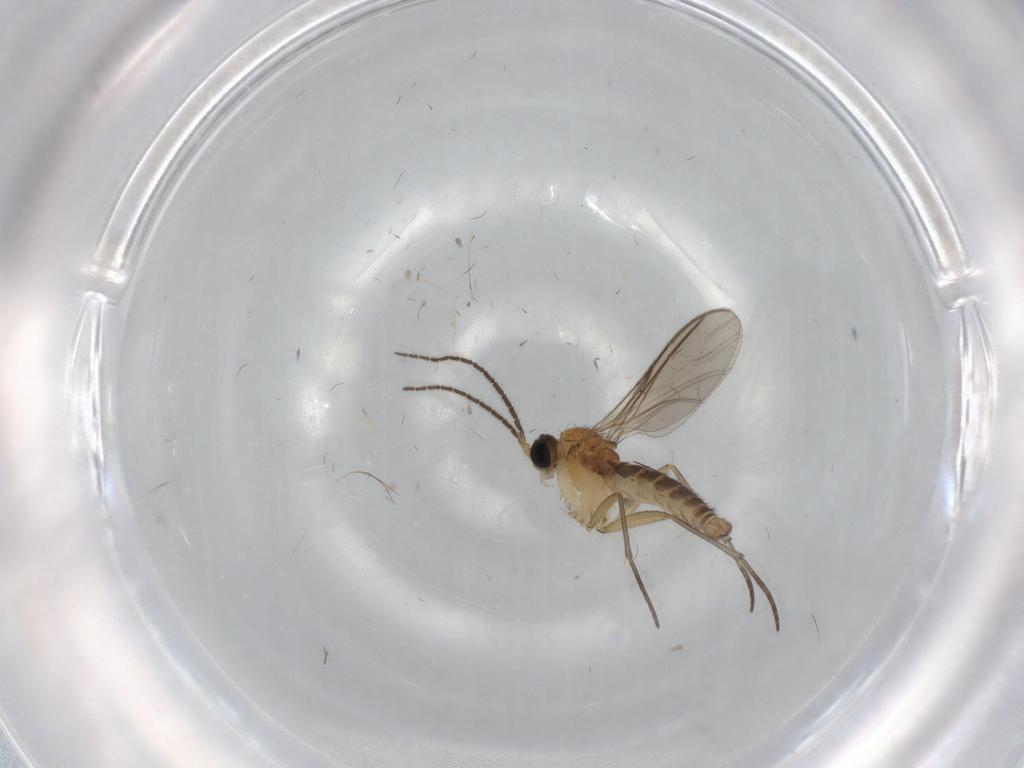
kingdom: Animalia
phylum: Arthropoda
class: Insecta
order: Diptera
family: Sciaridae
